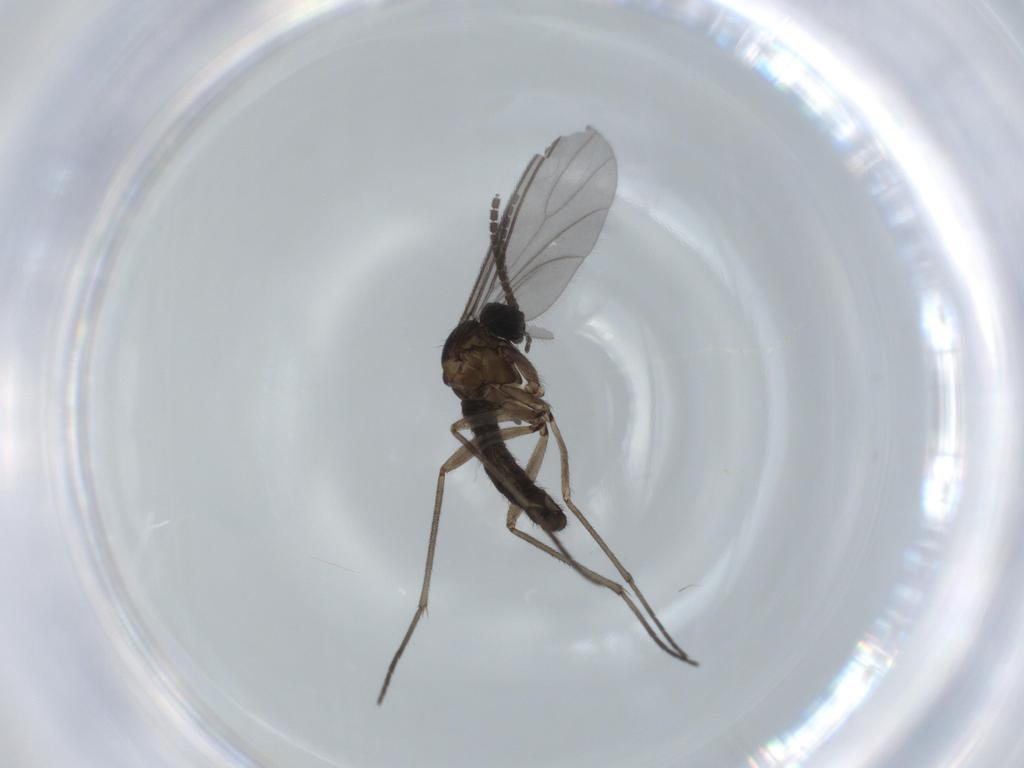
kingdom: Animalia
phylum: Arthropoda
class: Insecta
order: Diptera
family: Sciaridae
